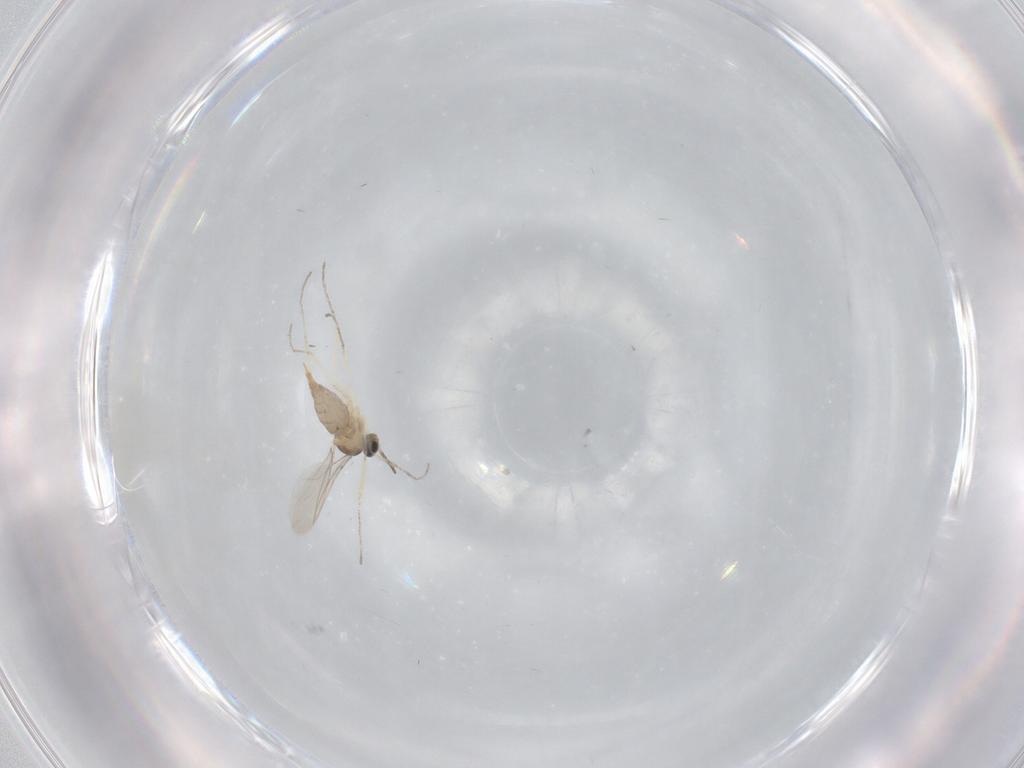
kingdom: Animalia
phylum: Arthropoda
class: Insecta
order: Diptera
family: Cecidomyiidae
